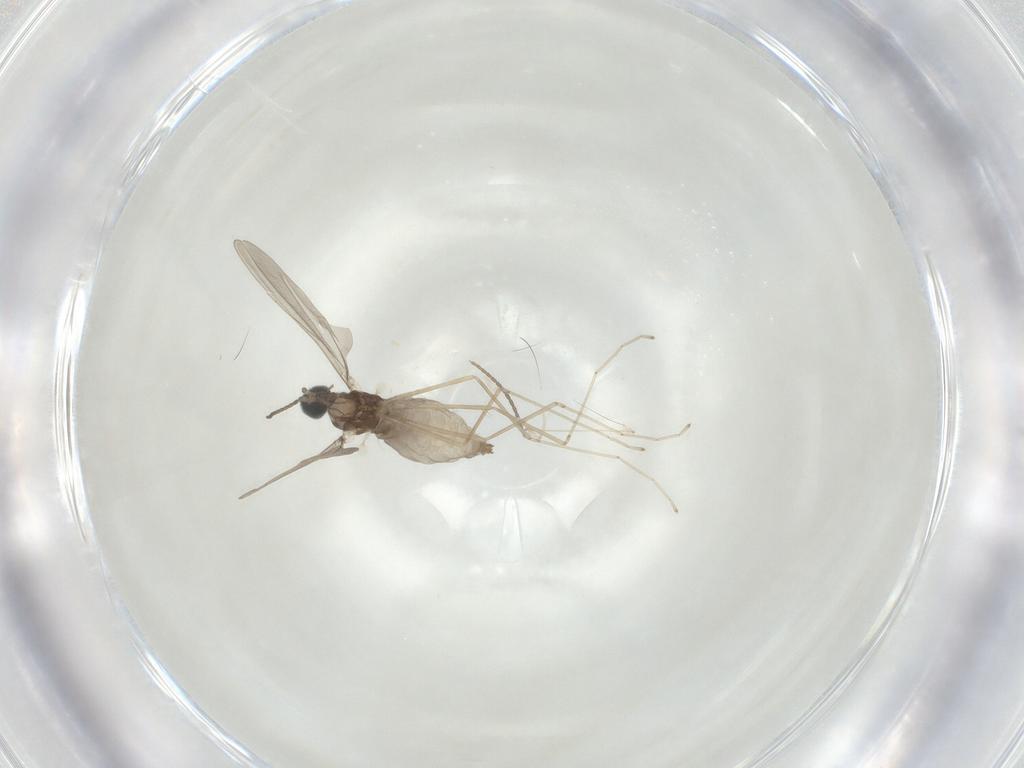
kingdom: Animalia
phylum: Arthropoda
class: Insecta
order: Diptera
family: Cecidomyiidae
